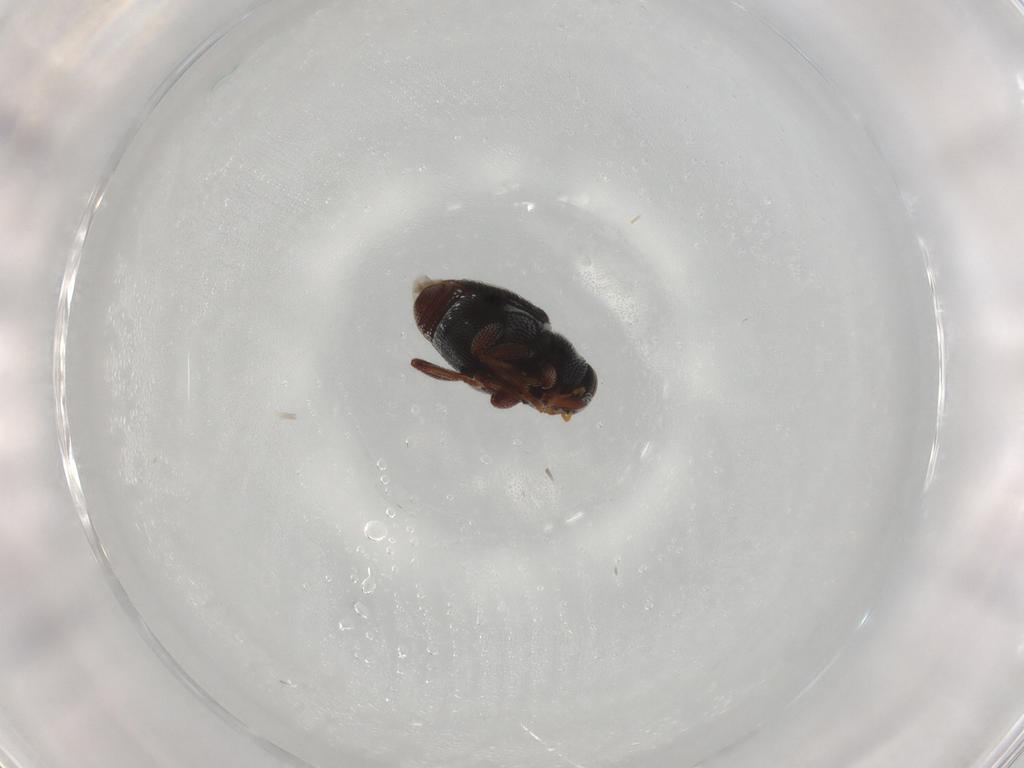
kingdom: Animalia
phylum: Arthropoda
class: Insecta
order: Coleoptera
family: Curculionidae
